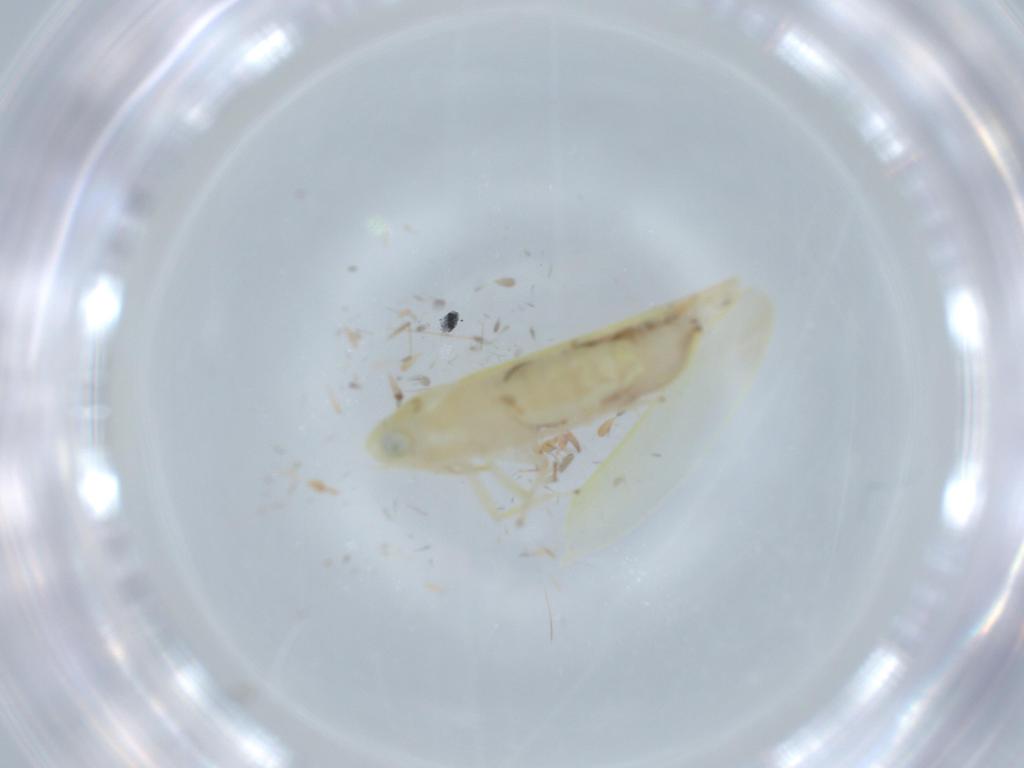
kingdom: Animalia
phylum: Arthropoda
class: Insecta
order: Hemiptera
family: Cicadellidae
